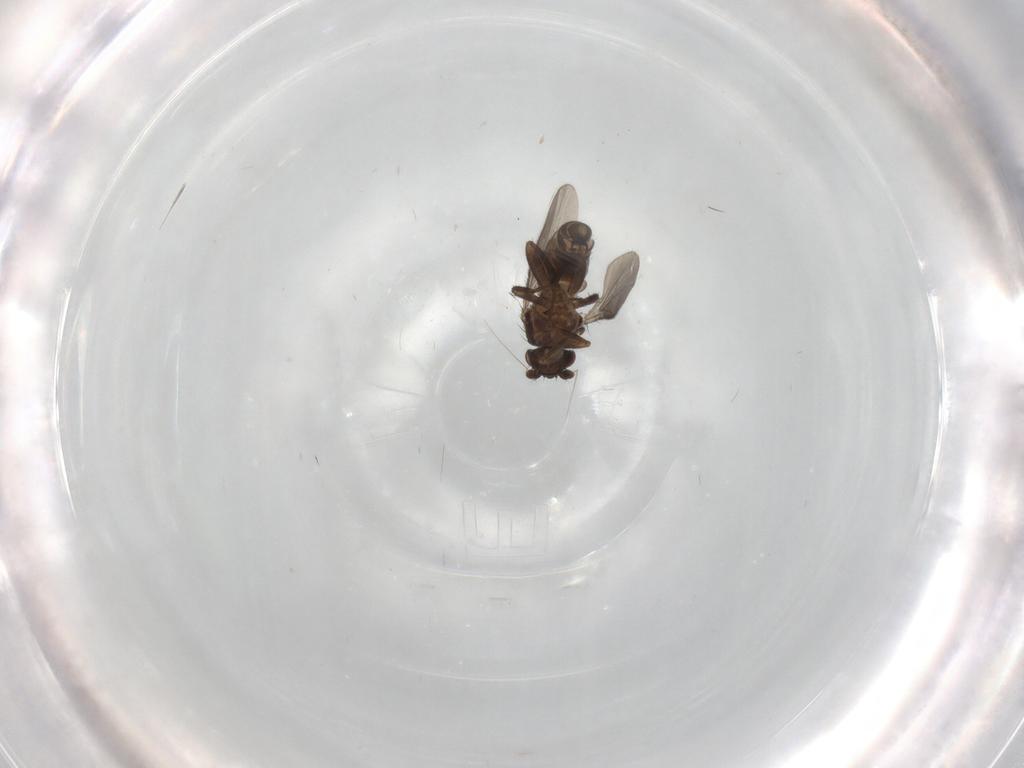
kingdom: Animalia
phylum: Arthropoda
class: Insecta
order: Diptera
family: Sphaeroceridae
